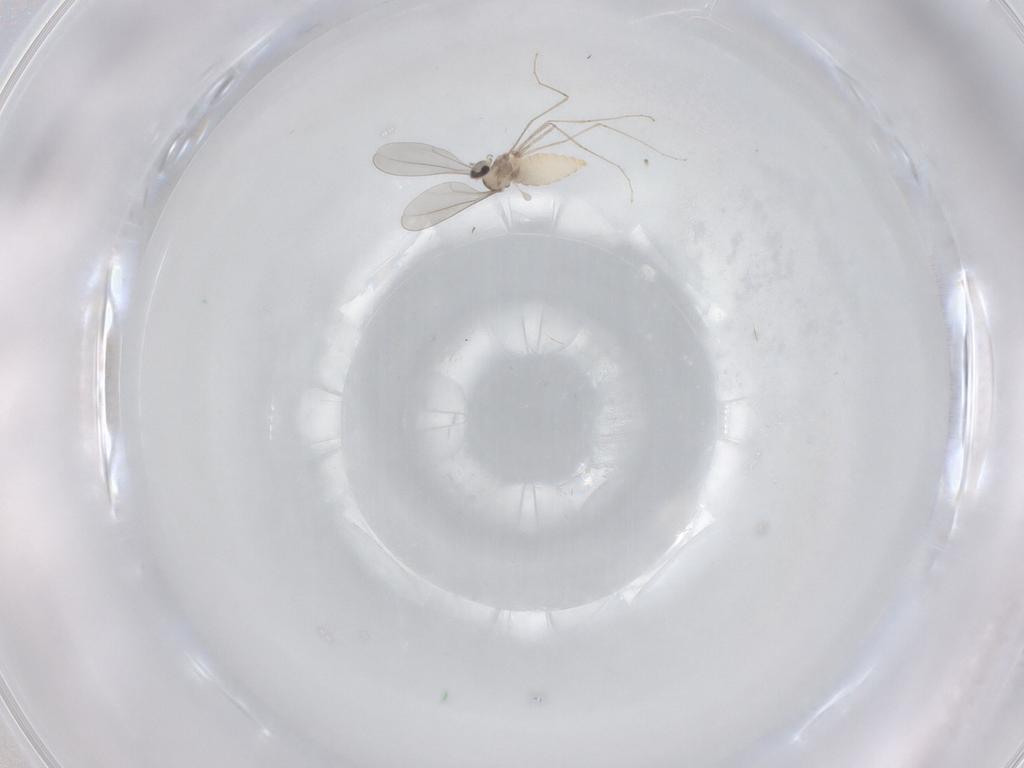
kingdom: Animalia
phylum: Arthropoda
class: Insecta
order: Diptera
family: Cecidomyiidae
